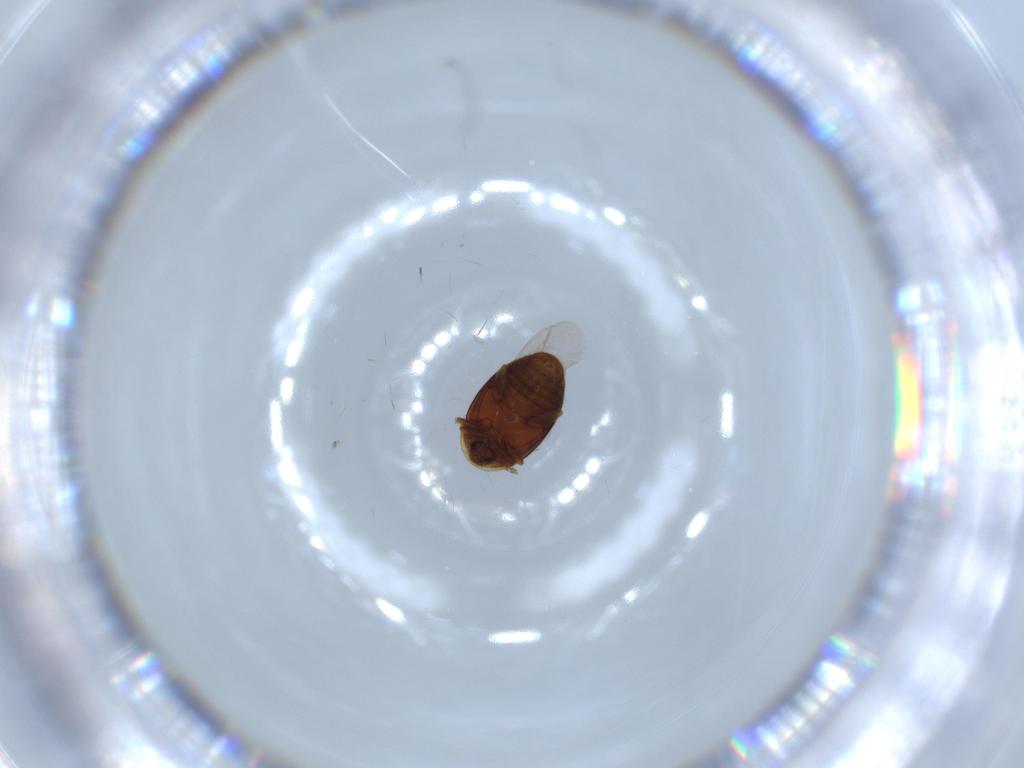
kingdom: Animalia
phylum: Arthropoda
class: Insecta
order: Coleoptera
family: Corylophidae
